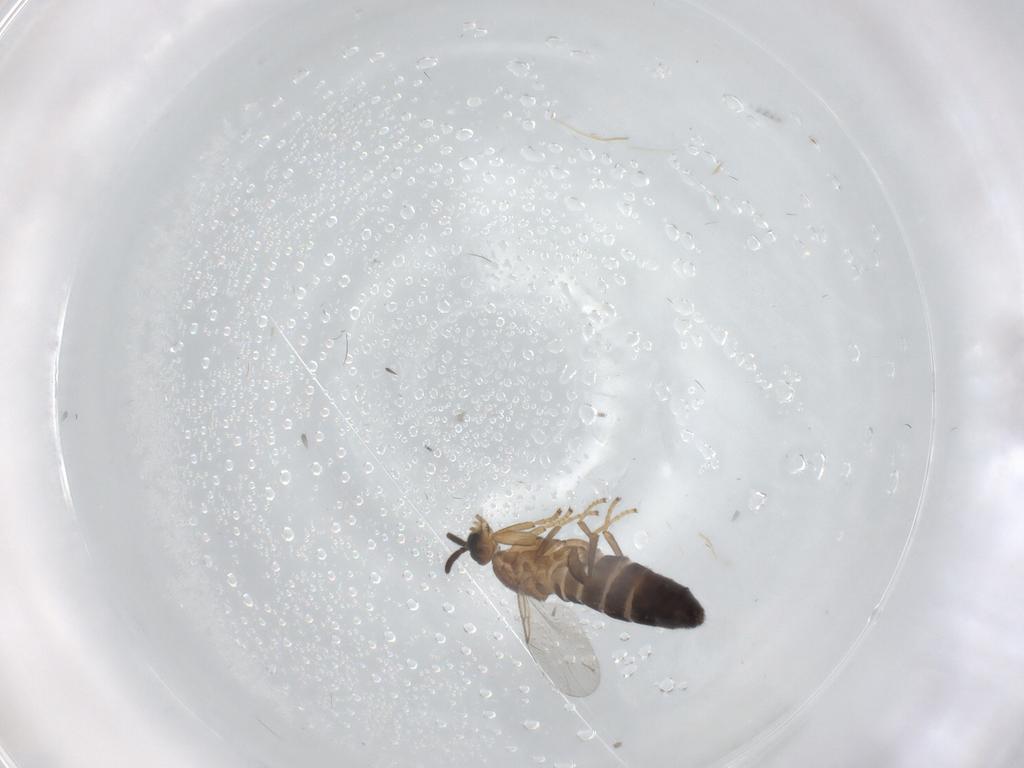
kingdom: Animalia
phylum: Arthropoda
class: Insecta
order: Diptera
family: Scatopsidae
